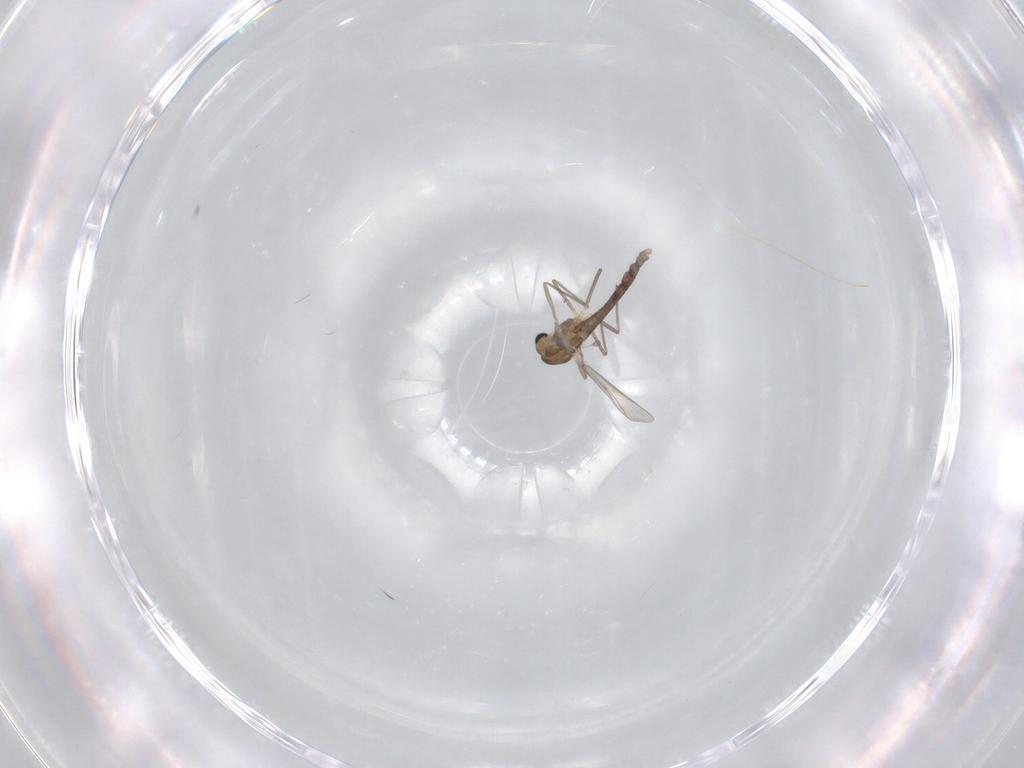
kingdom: Animalia
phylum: Arthropoda
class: Insecta
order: Diptera
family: Chironomidae
